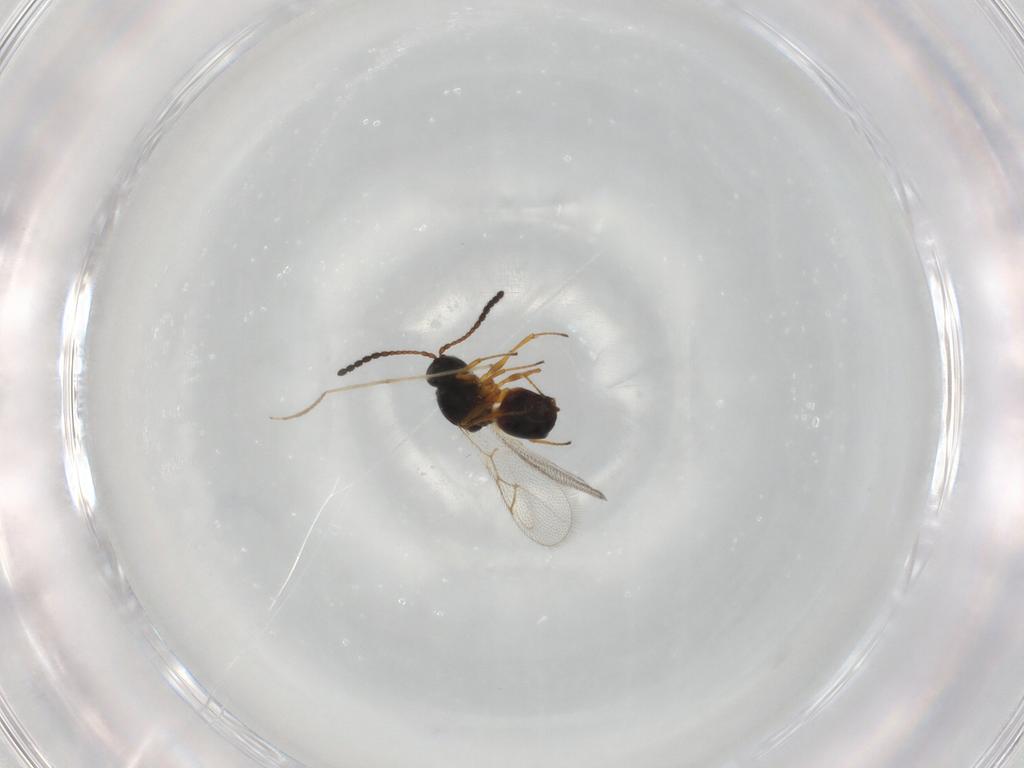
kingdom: Animalia
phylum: Arthropoda
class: Insecta
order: Hymenoptera
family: Figitidae
